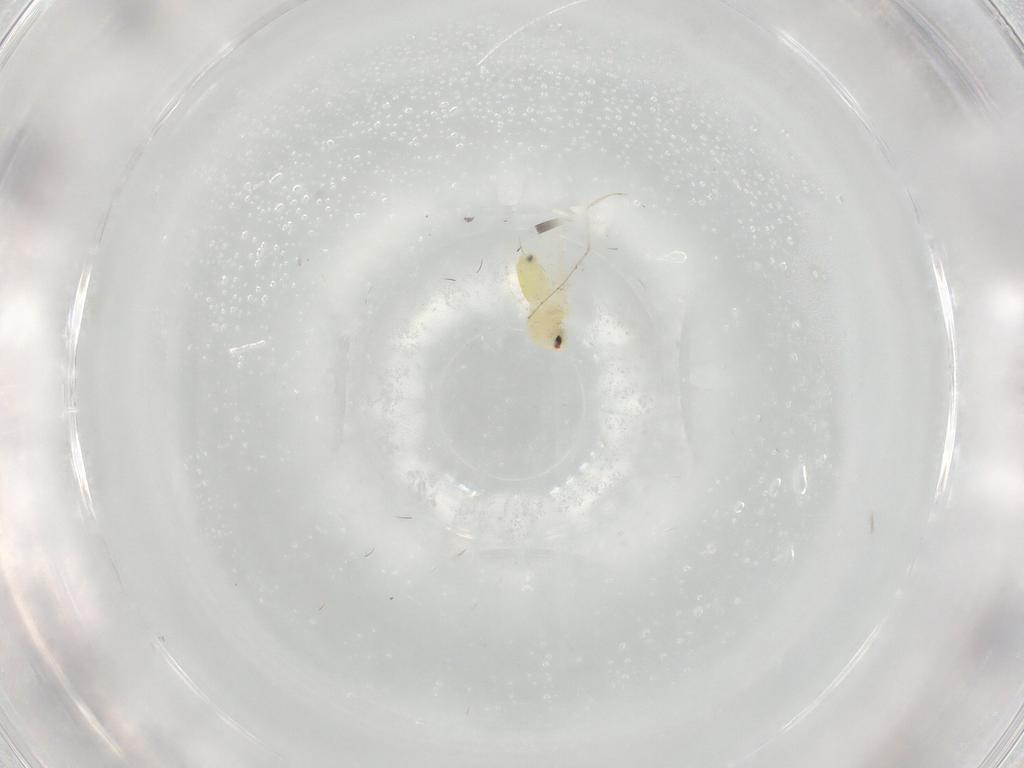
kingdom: Animalia
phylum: Arthropoda
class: Insecta
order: Hemiptera
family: Aleyrodidae
